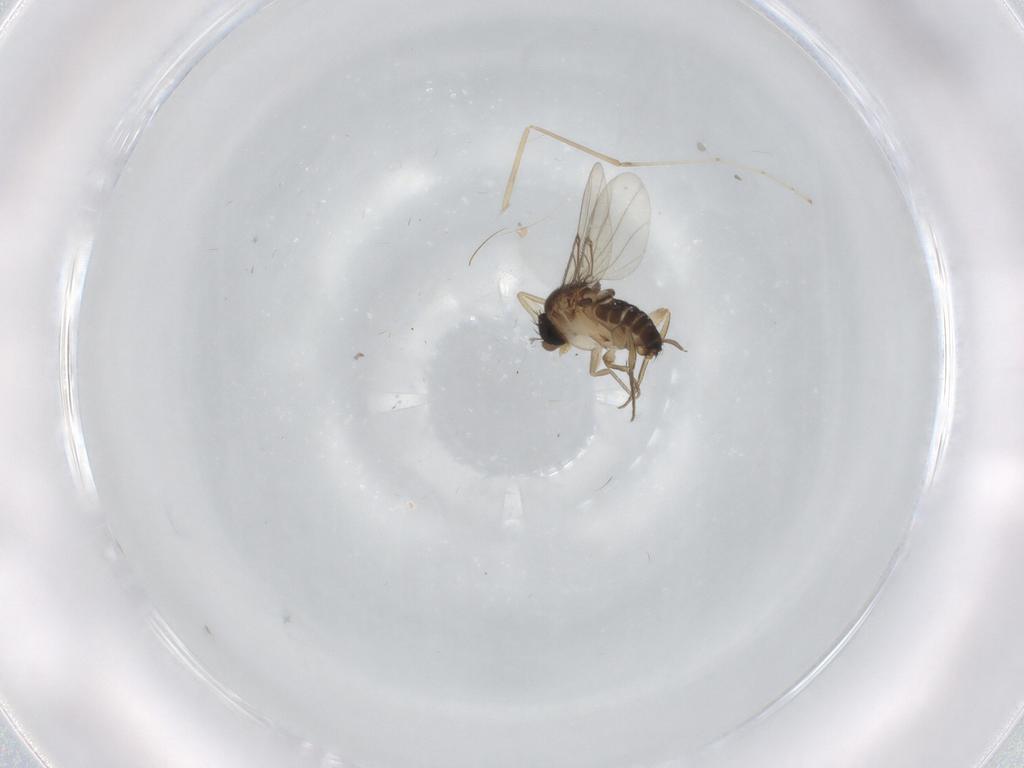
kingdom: Animalia
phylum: Arthropoda
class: Insecta
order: Diptera
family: Cecidomyiidae
